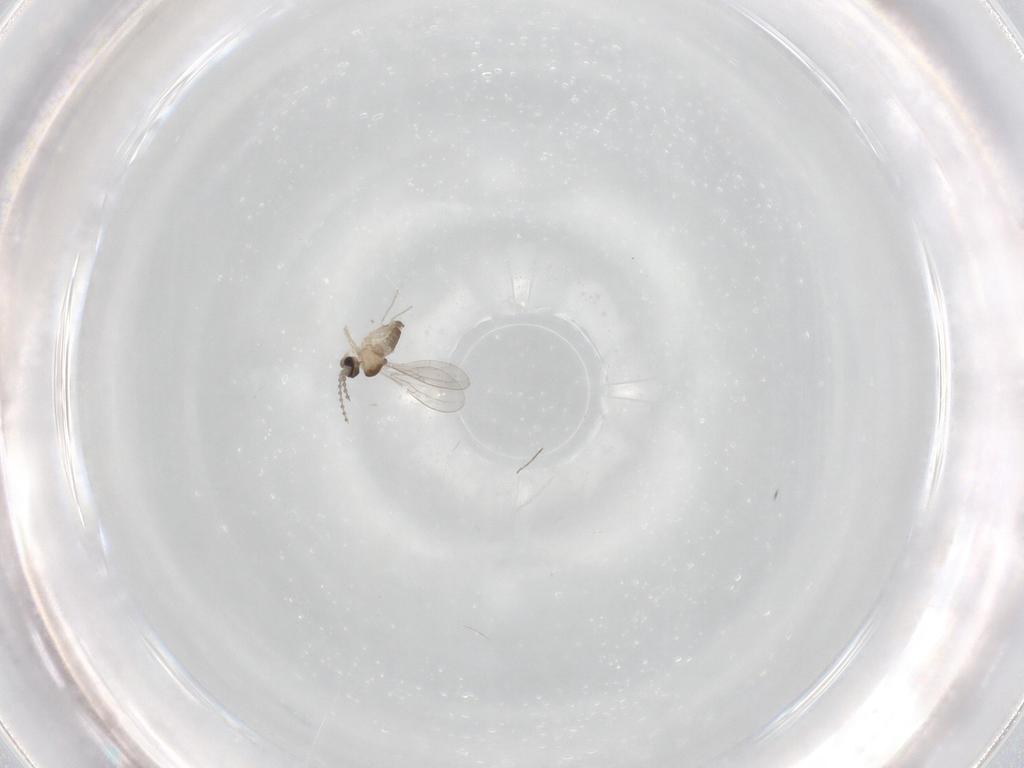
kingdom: Animalia
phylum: Arthropoda
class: Insecta
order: Diptera
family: Cecidomyiidae
